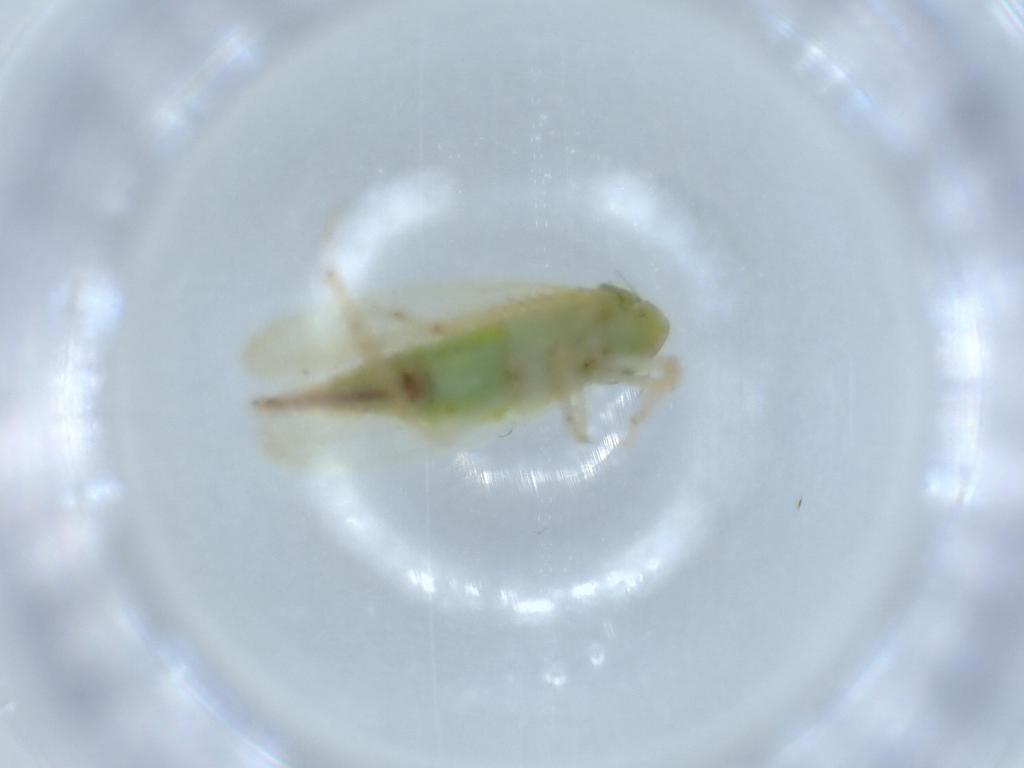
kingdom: Animalia
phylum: Arthropoda
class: Insecta
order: Hemiptera
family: Cicadellidae
